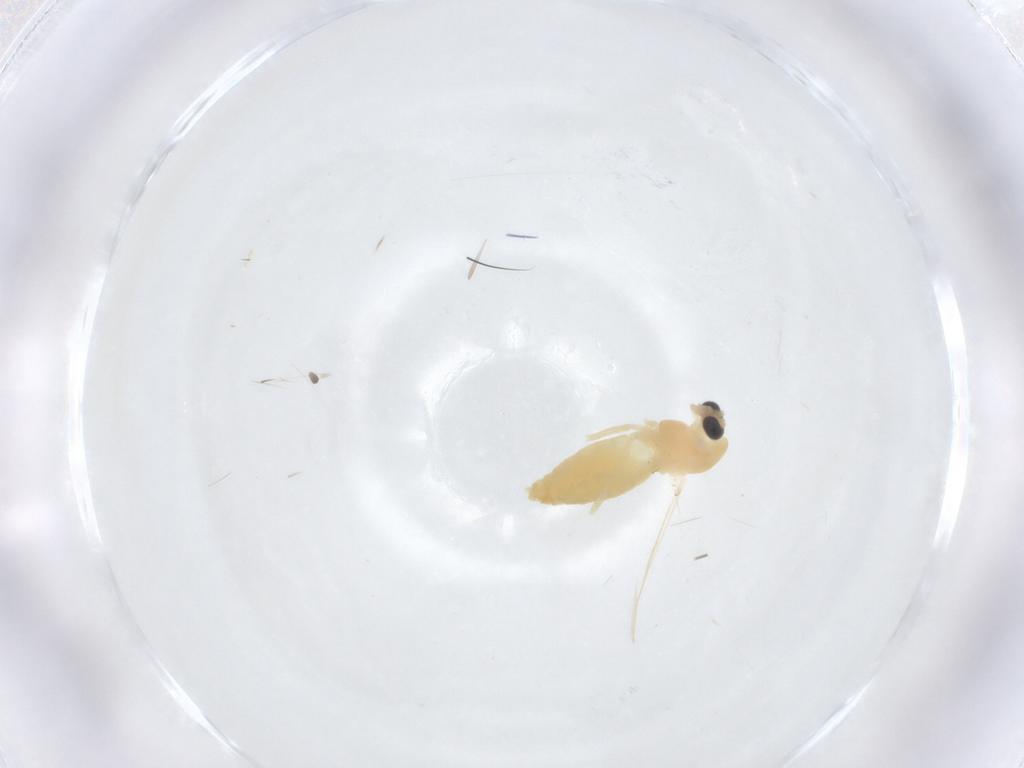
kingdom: Animalia
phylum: Arthropoda
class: Insecta
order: Diptera
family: Chironomidae
